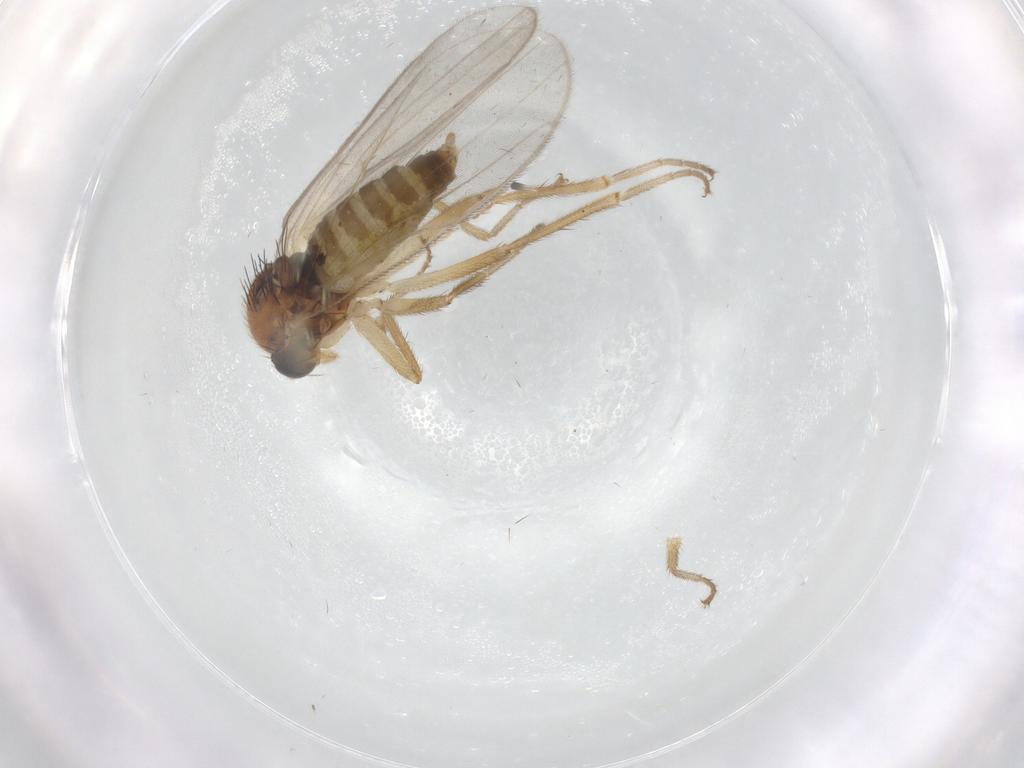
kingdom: Animalia
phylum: Arthropoda
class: Insecta
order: Diptera
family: Hybotidae
